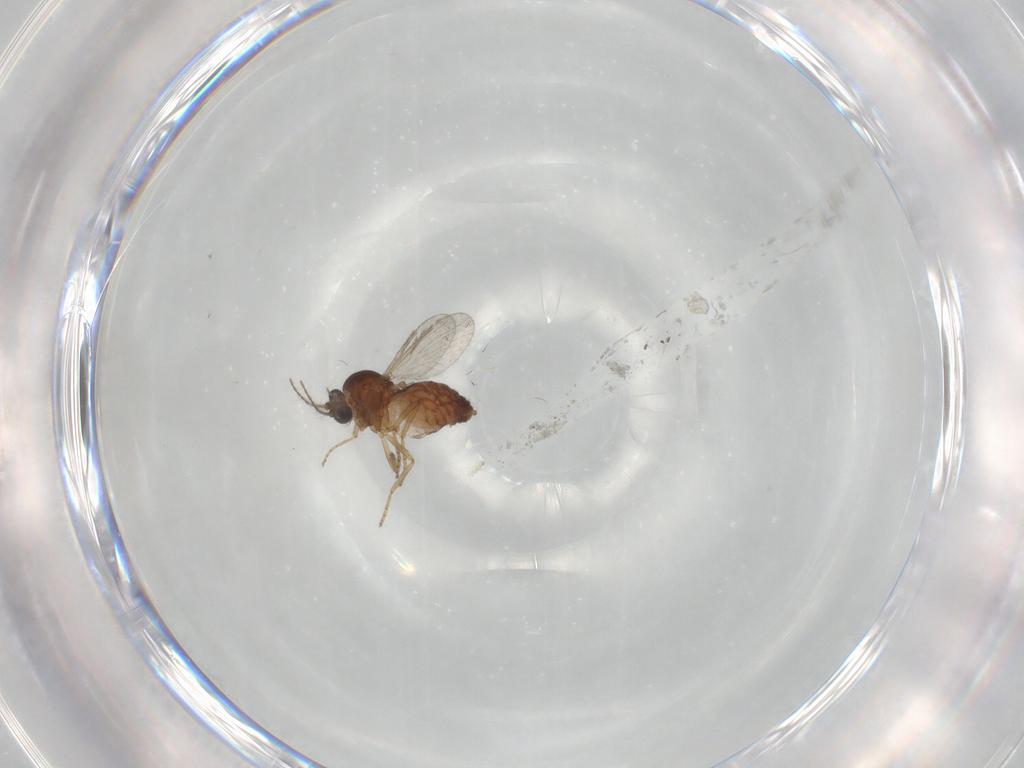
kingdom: Animalia
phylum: Arthropoda
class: Insecta
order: Diptera
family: Ceratopogonidae
